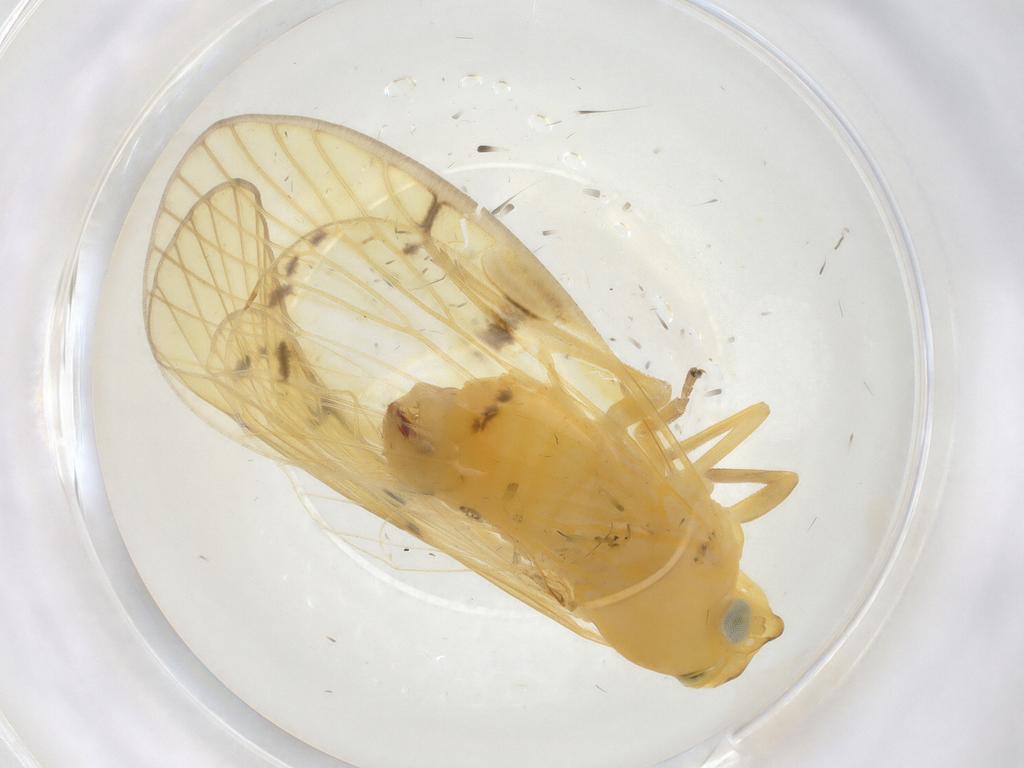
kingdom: Animalia
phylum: Arthropoda
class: Insecta
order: Hemiptera
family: Cixiidae
